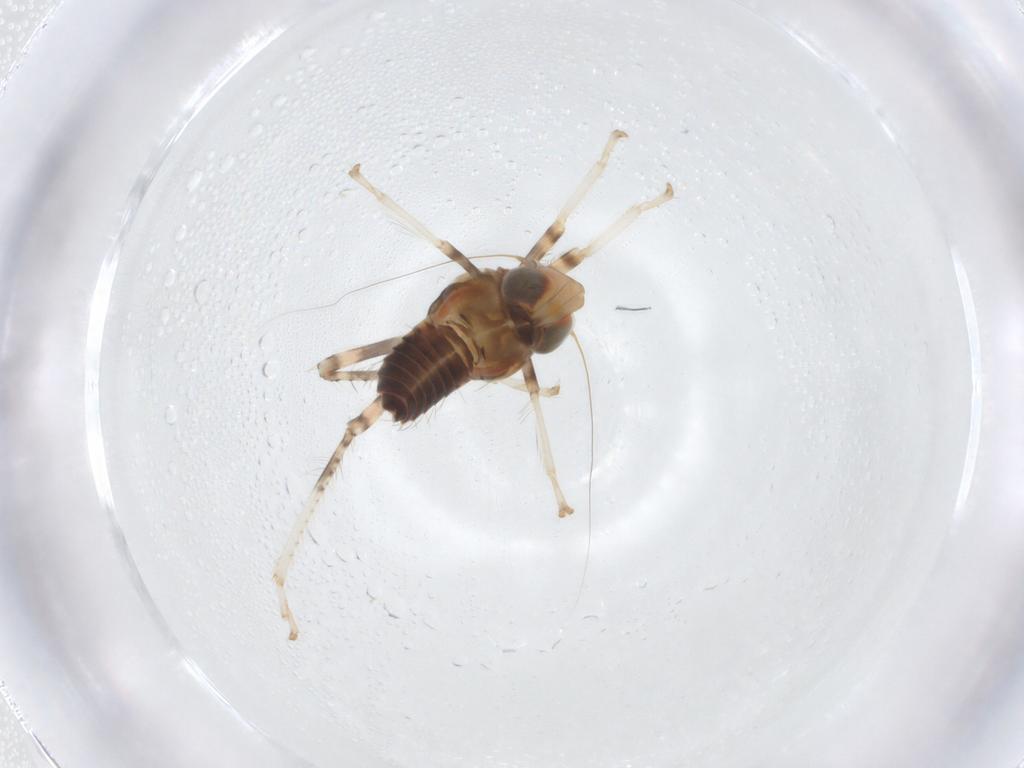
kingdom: Animalia
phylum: Arthropoda
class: Insecta
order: Hemiptera
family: Cicadellidae
